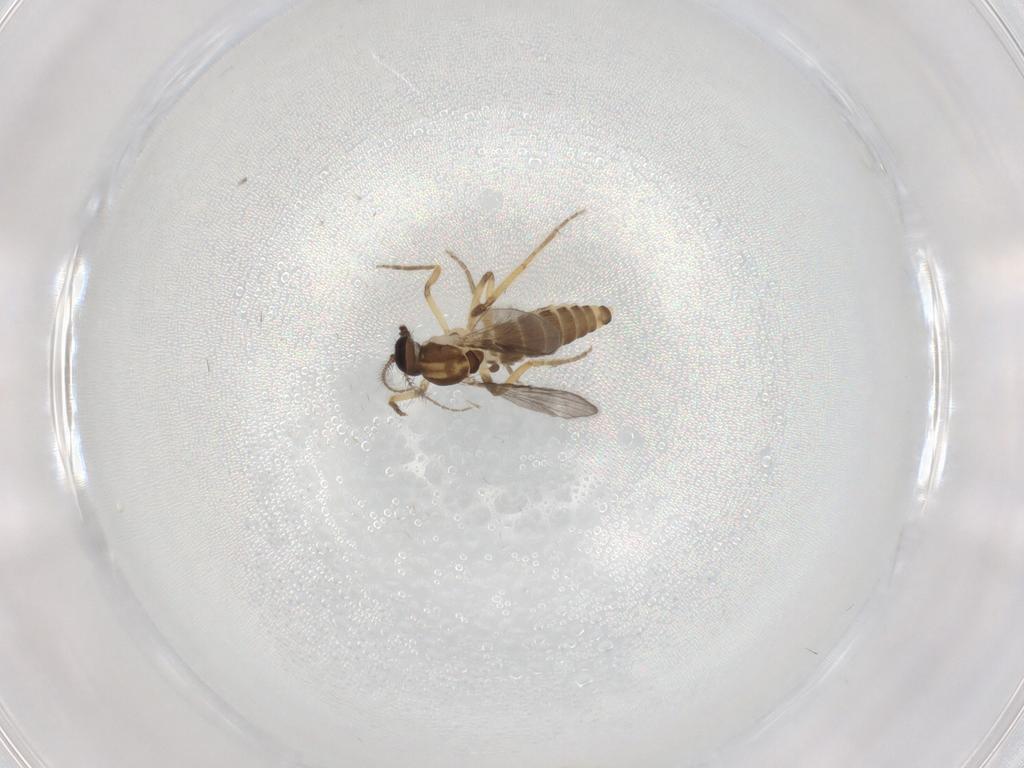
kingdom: Animalia
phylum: Arthropoda
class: Insecta
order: Diptera
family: Ceratopogonidae
